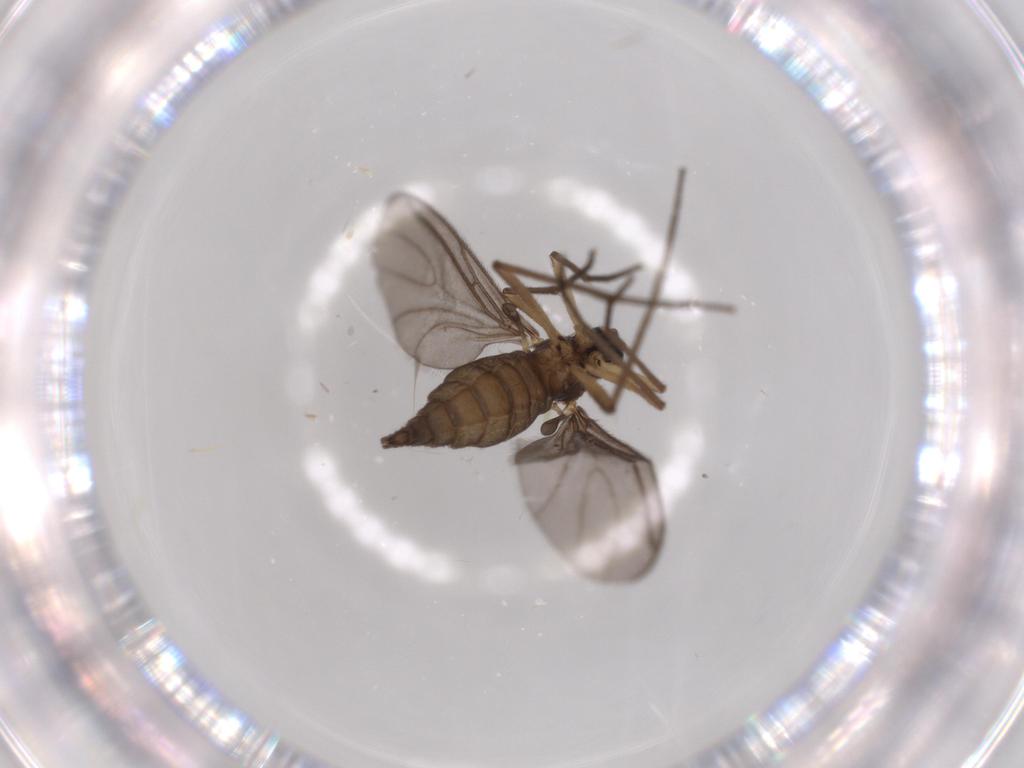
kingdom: Animalia
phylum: Arthropoda
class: Insecta
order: Diptera
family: Sciaridae
